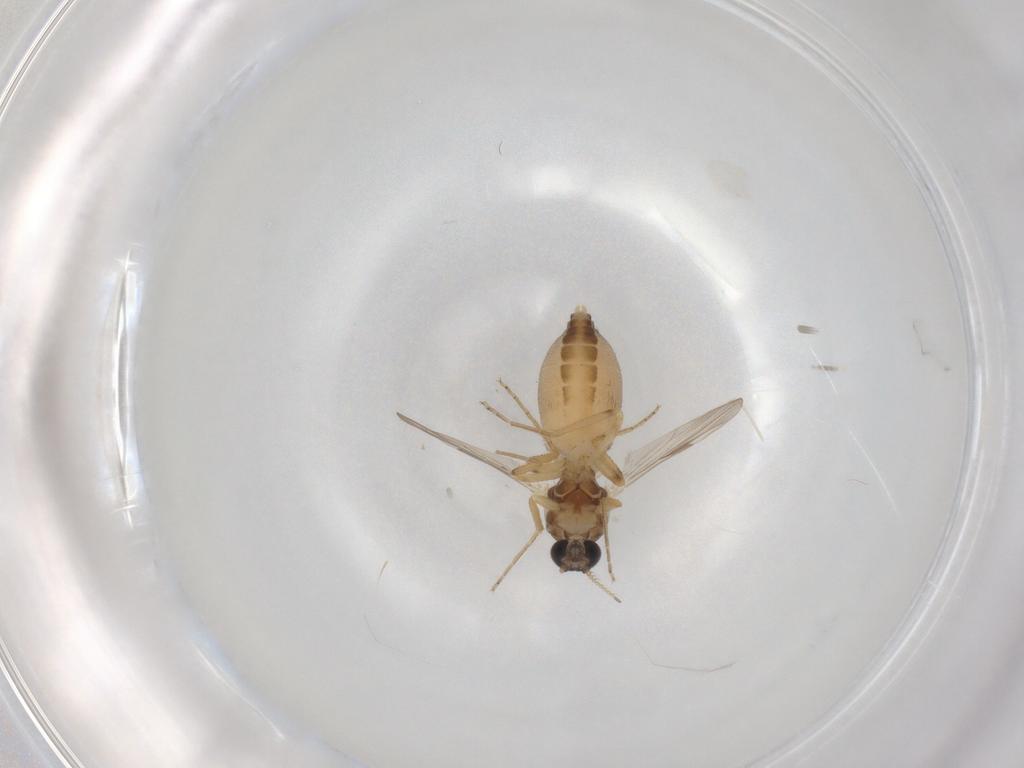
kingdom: Animalia
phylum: Arthropoda
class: Insecta
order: Diptera
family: Ceratopogonidae
